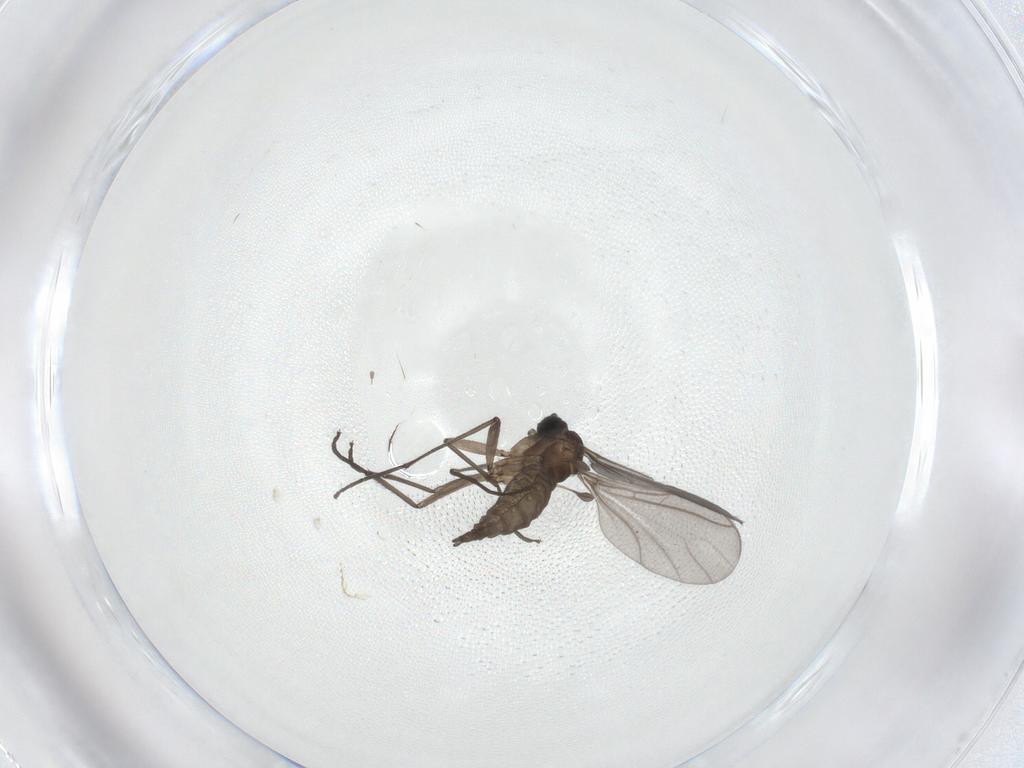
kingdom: Animalia
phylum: Arthropoda
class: Insecta
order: Diptera
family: Sciaridae
